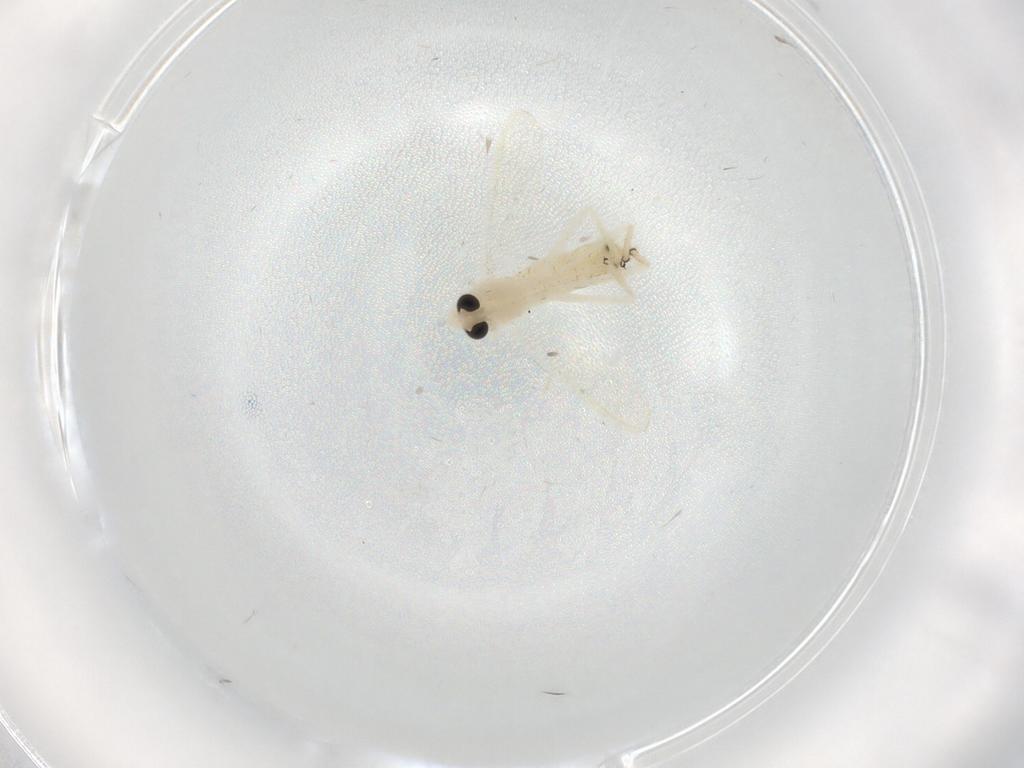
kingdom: Animalia
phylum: Arthropoda
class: Insecta
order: Diptera
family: Chironomidae
